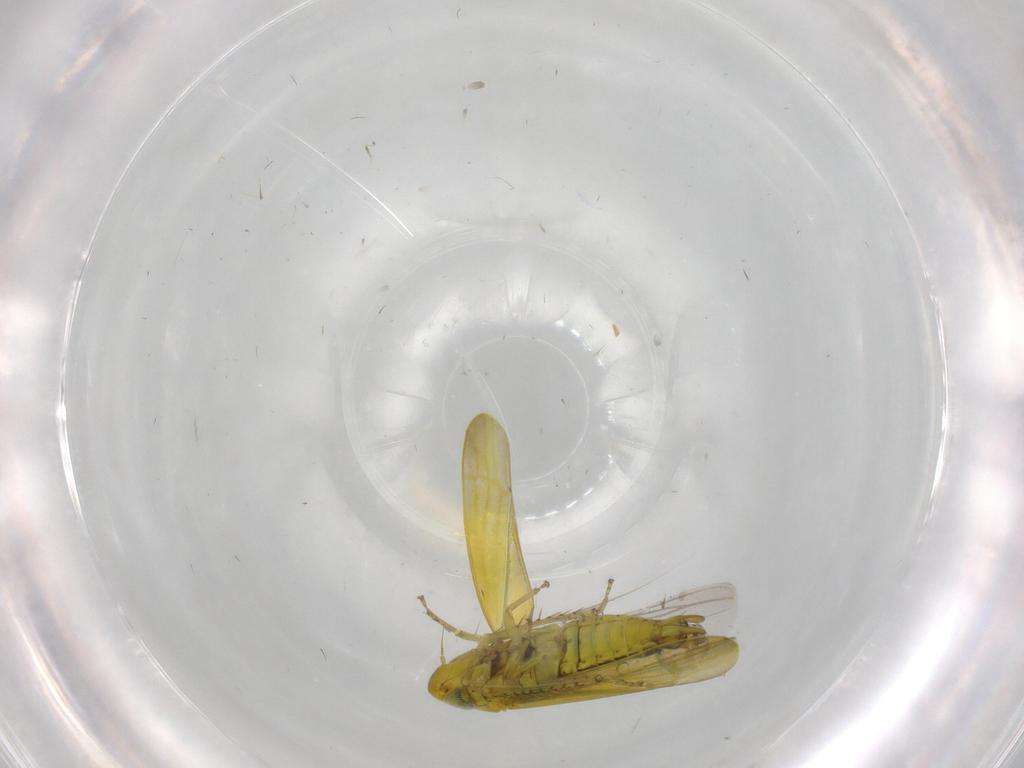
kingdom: Animalia
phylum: Arthropoda
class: Insecta
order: Hemiptera
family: Cicadellidae
